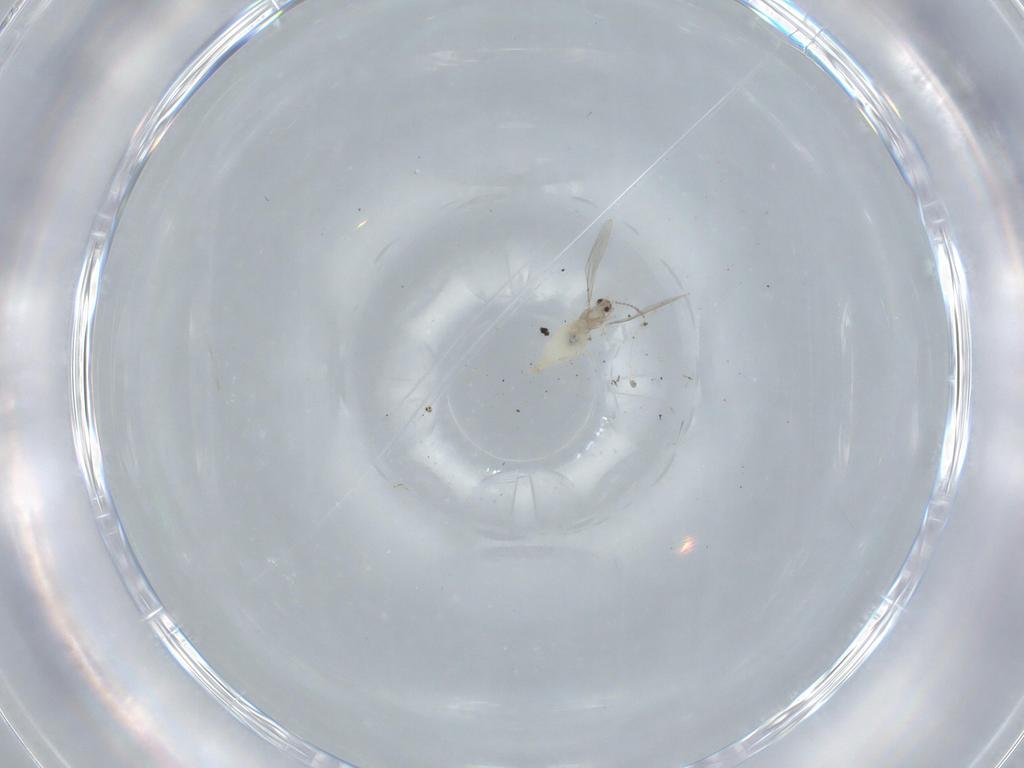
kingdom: Animalia
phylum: Arthropoda
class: Insecta
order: Diptera
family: Cecidomyiidae
